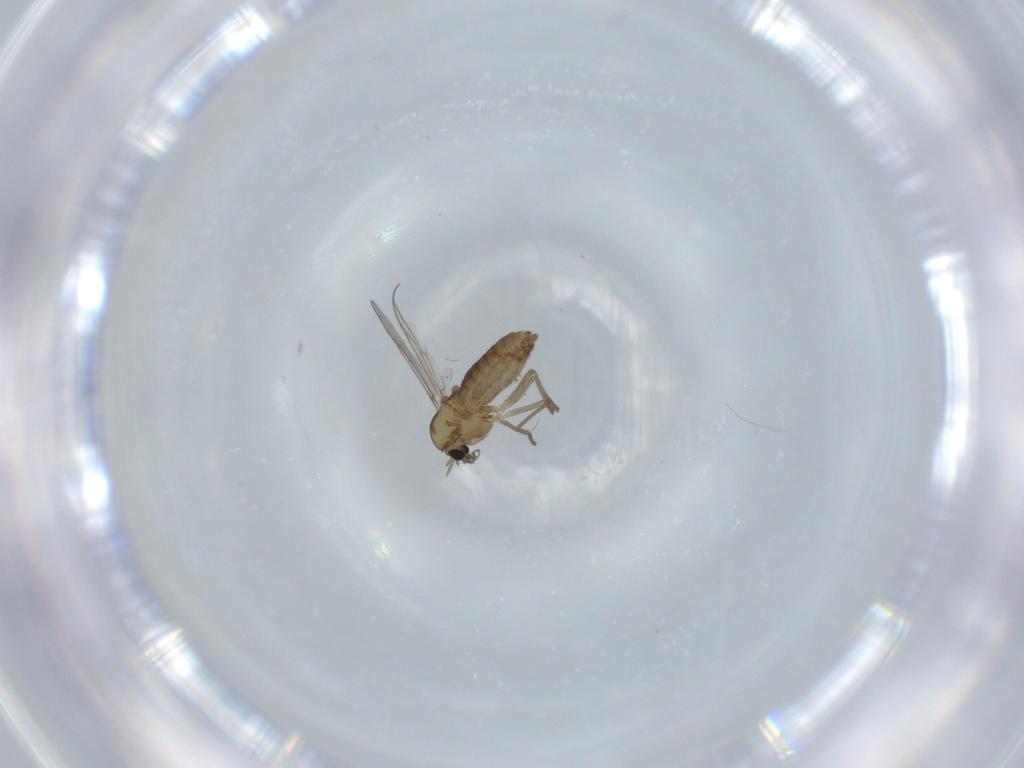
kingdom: Animalia
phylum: Arthropoda
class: Insecta
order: Diptera
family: Chironomidae
